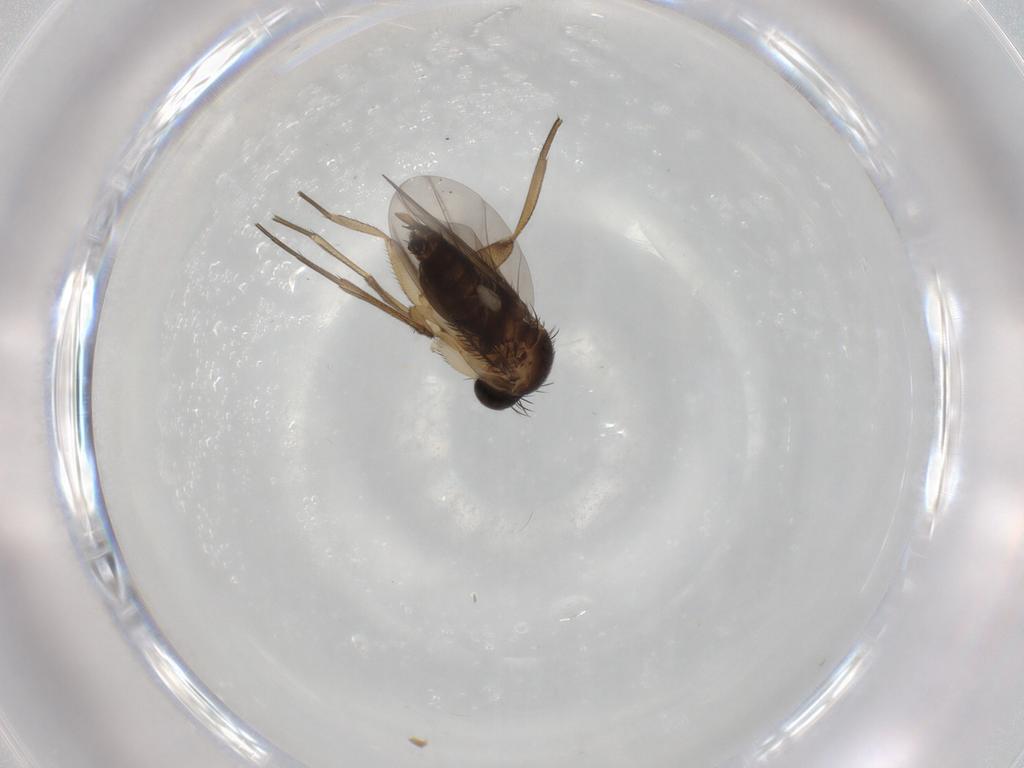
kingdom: Animalia
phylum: Arthropoda
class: Insecta
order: Diptera
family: Phoridae
